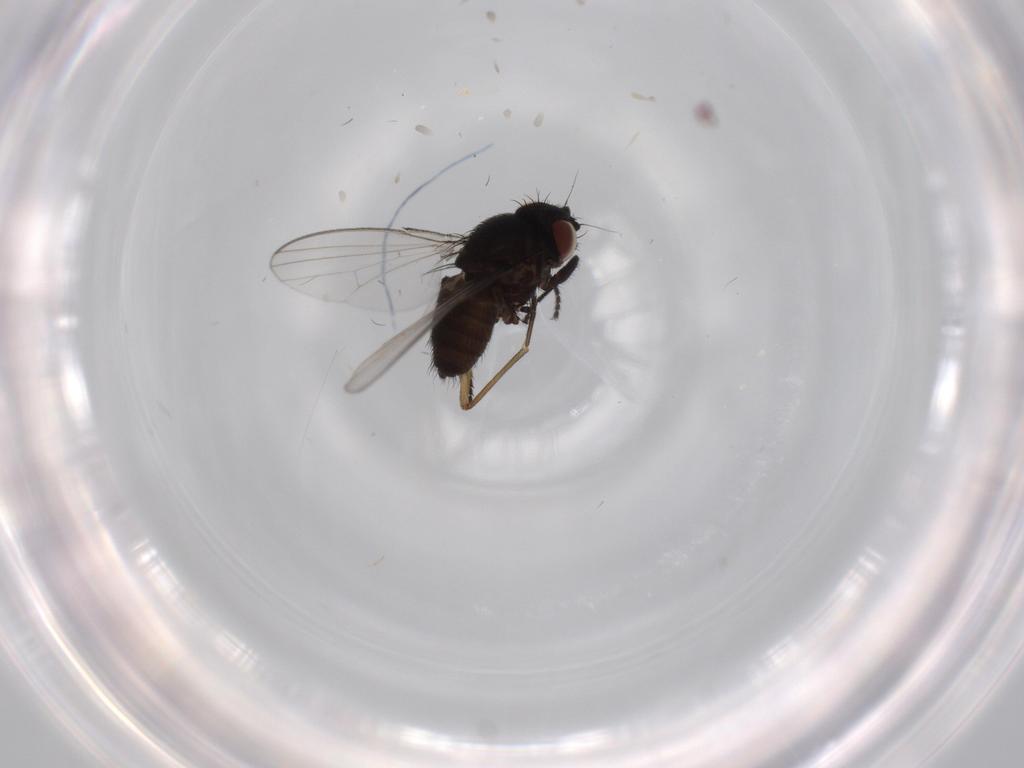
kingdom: Animalia
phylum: Arthropoda
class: Insecta
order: Diptera
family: Milichiidae
